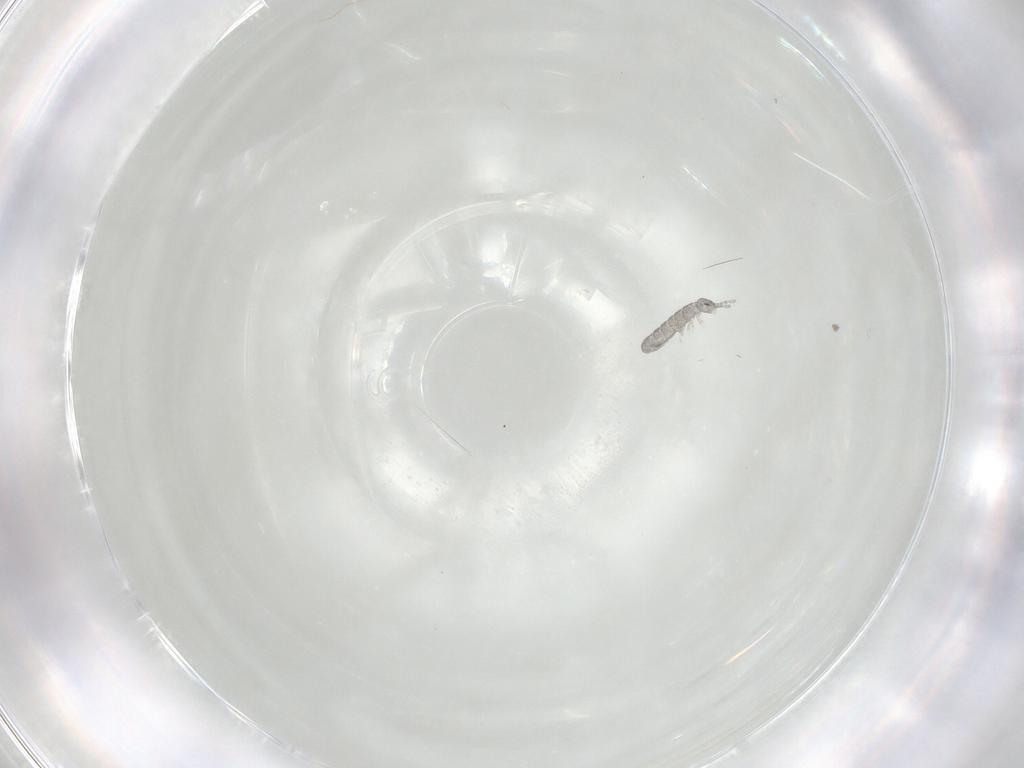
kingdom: Animalia
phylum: Arthropoda
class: Collembola
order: Entomobryomorpha
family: Isotomidae
